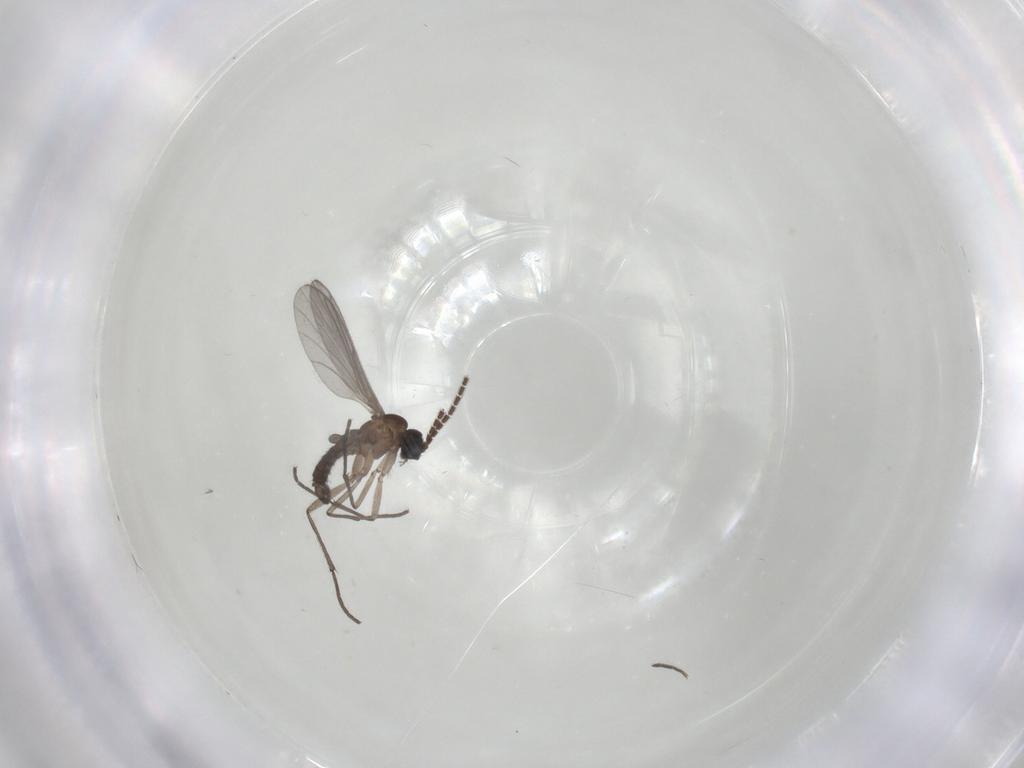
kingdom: Animalia
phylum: Arthropoda
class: Insecta
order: Diptera
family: Sciaridae
